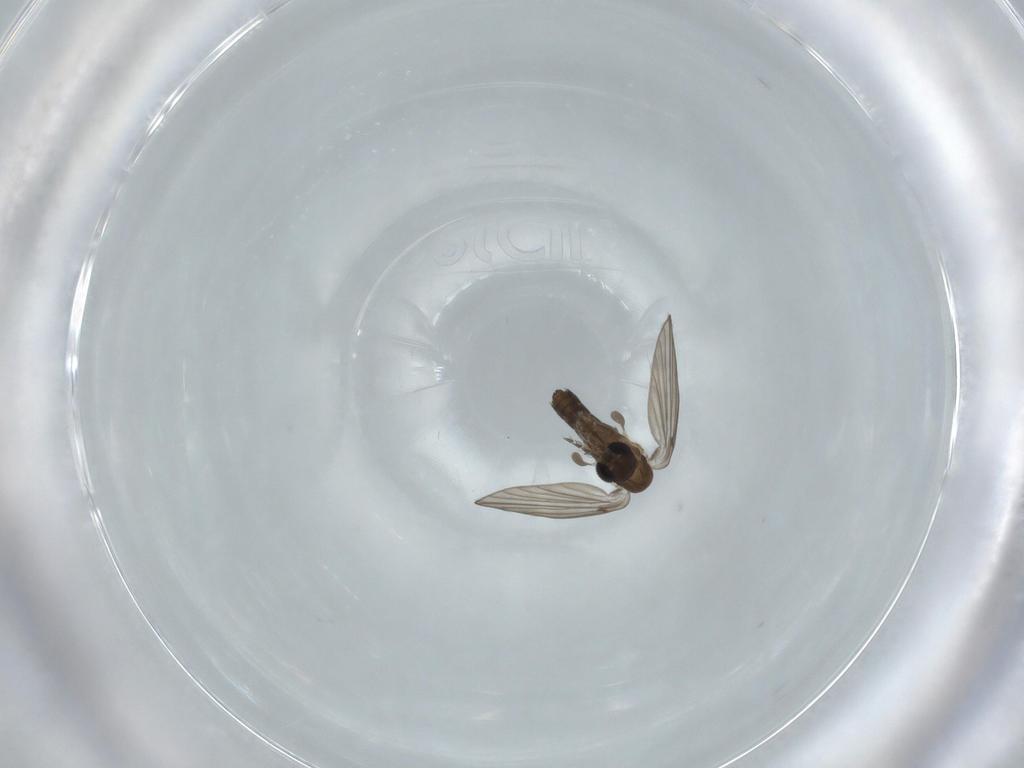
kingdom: Animalia
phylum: Arthropoda
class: Insecta
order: Diptera
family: Psychodidae
